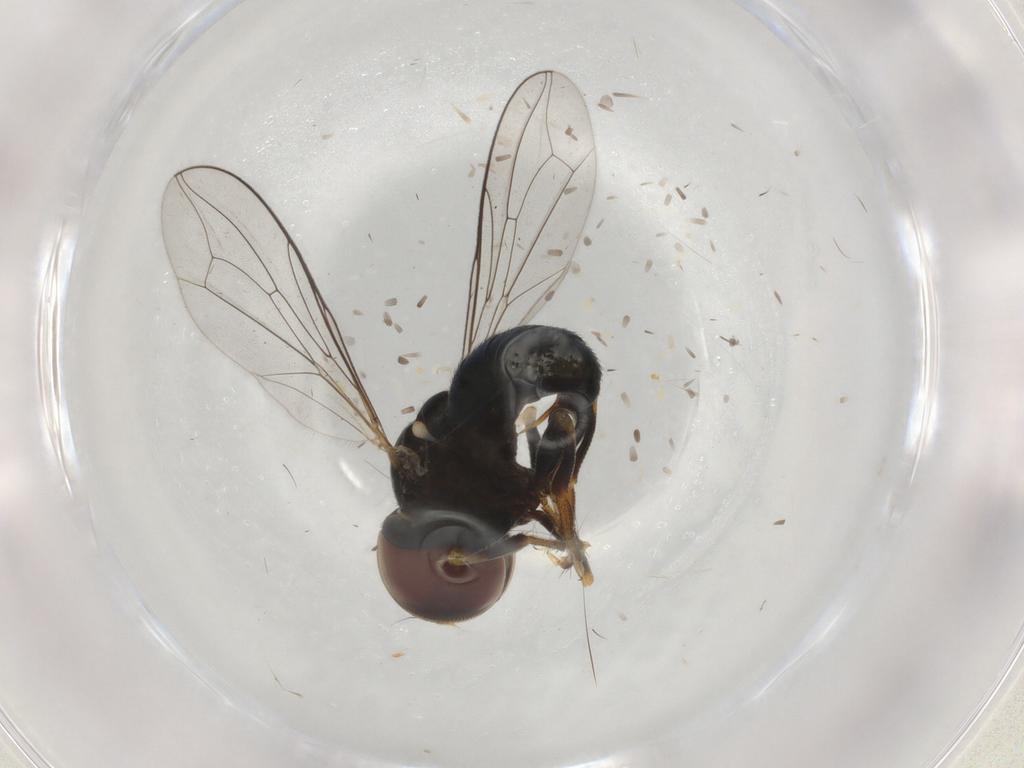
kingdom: Animalia
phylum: Arthropoda
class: Insecta
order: Diptera
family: Pipunculidae
